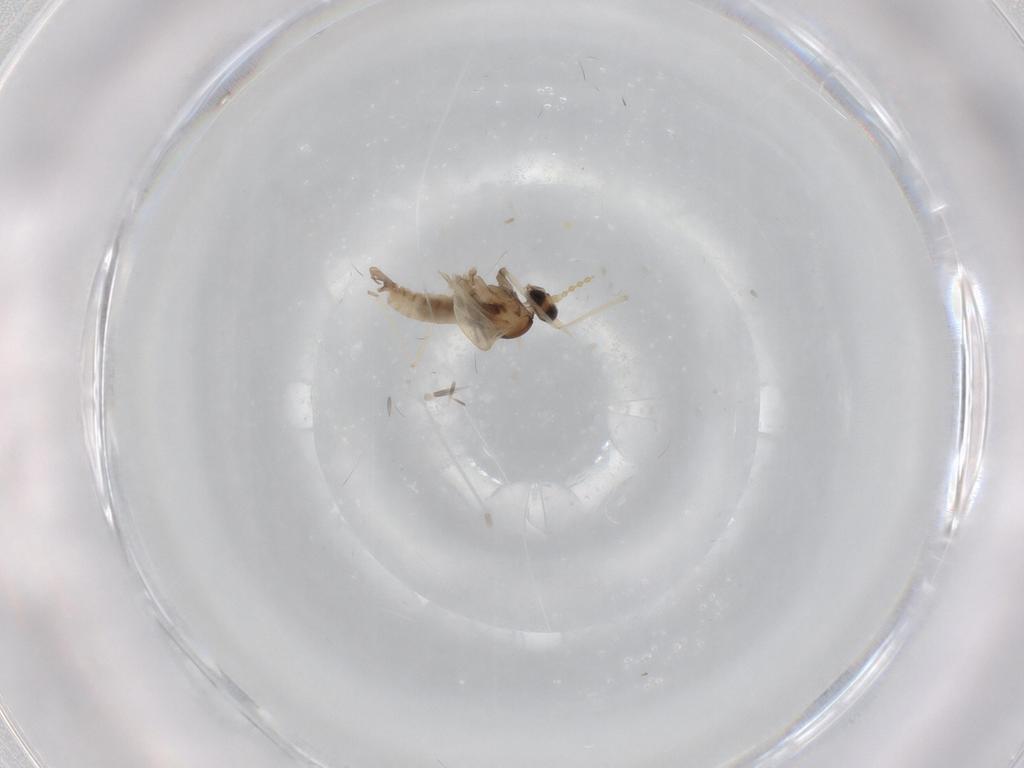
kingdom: Animalia
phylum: Arthropoda
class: Insecta
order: Diptera
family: Cecidomyiidae
